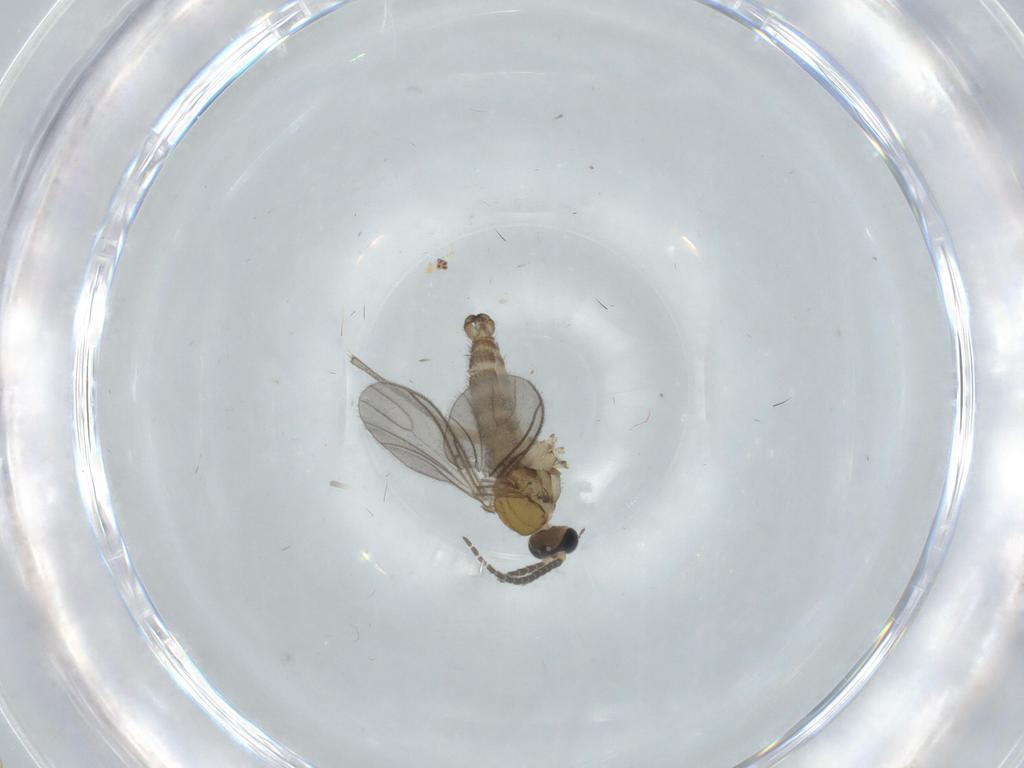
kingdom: Animalia
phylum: Arthropoda
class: Insecta
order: Diptera
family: Sciaridae
